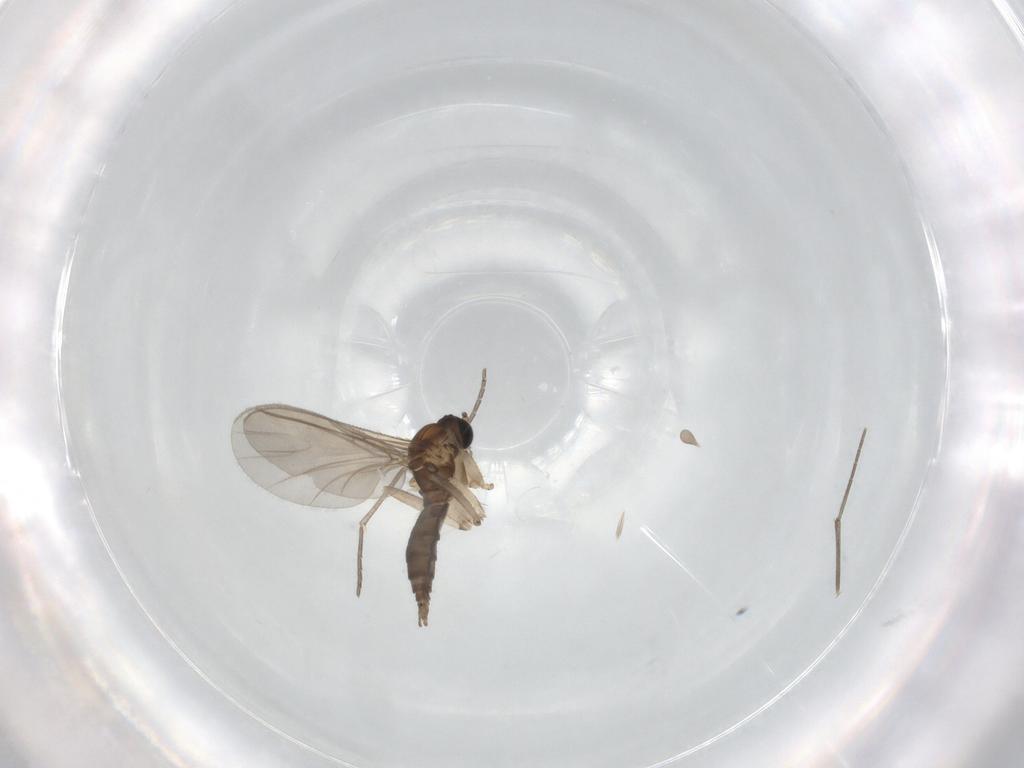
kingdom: Animalia
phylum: Arthropoda
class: Insecta
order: Diptera
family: Sciaridae
